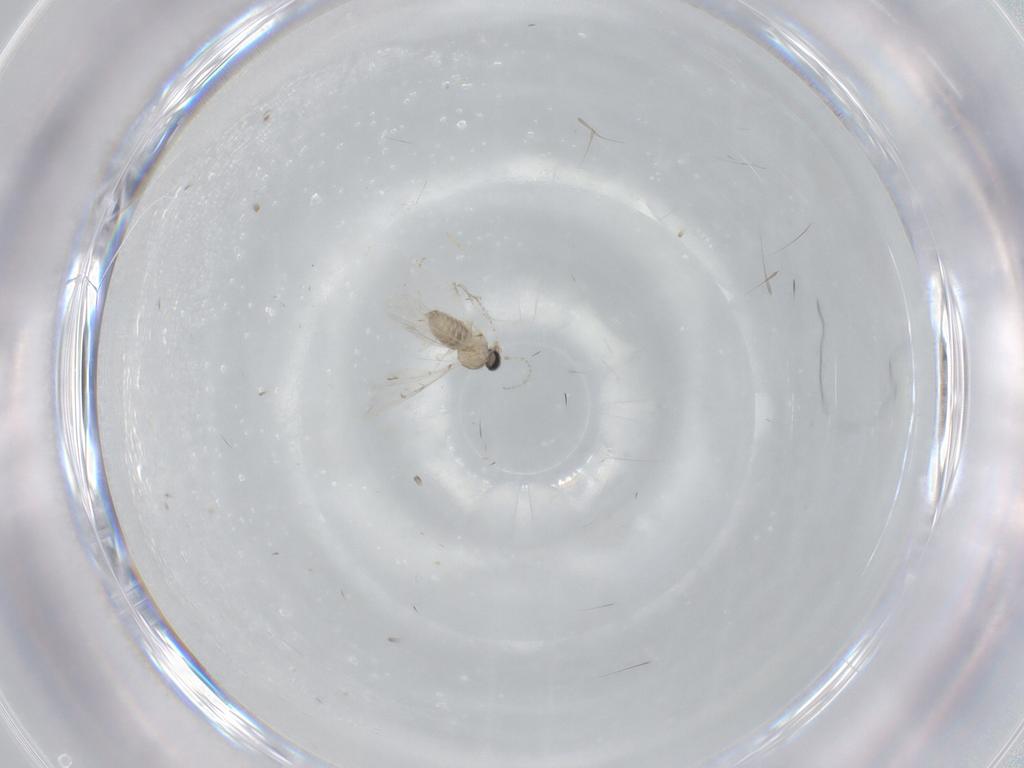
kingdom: Animalia
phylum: Arthropoda
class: Insecta
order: Diptera
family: Cecidomyiidae
